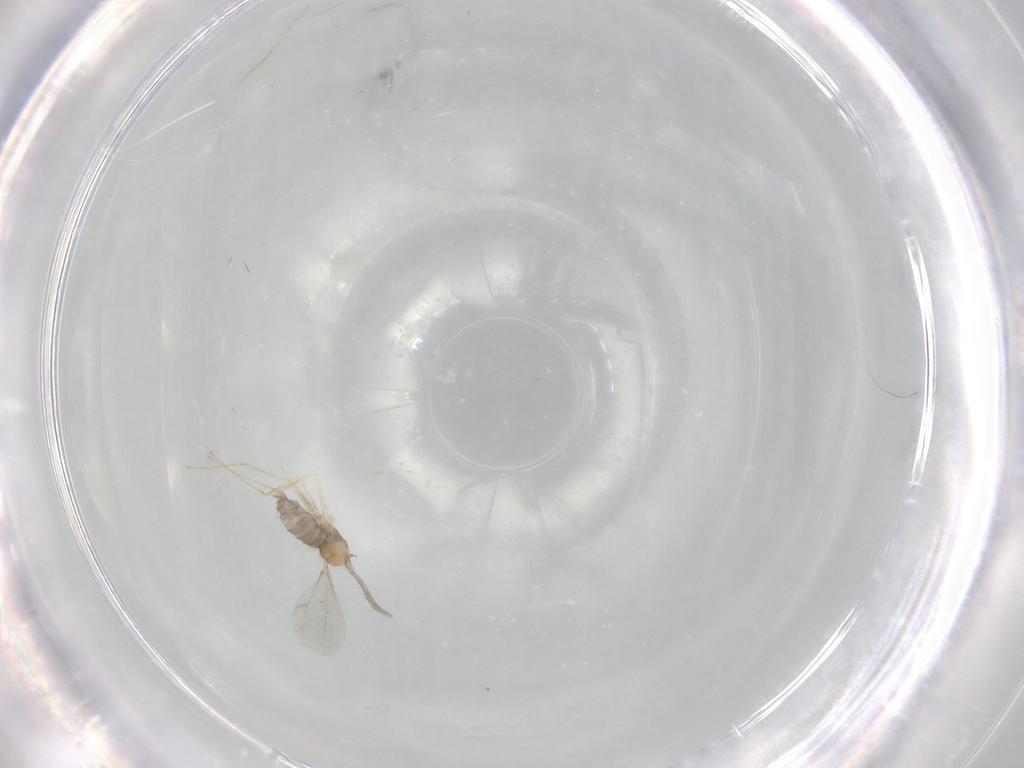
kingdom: Animalia
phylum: Arthropoda
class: Insecta
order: Diptera
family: Cecidomyiidae
